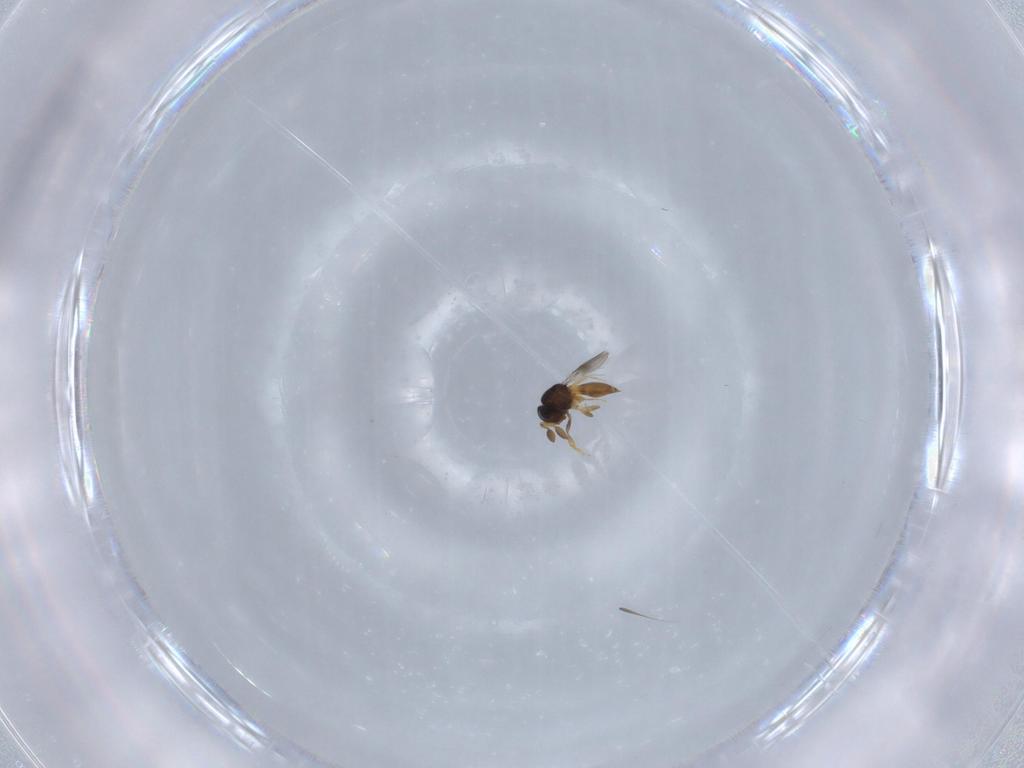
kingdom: Animalia
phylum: Arthropoda
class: Insecta
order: Hymenoptera
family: Scelionidae
